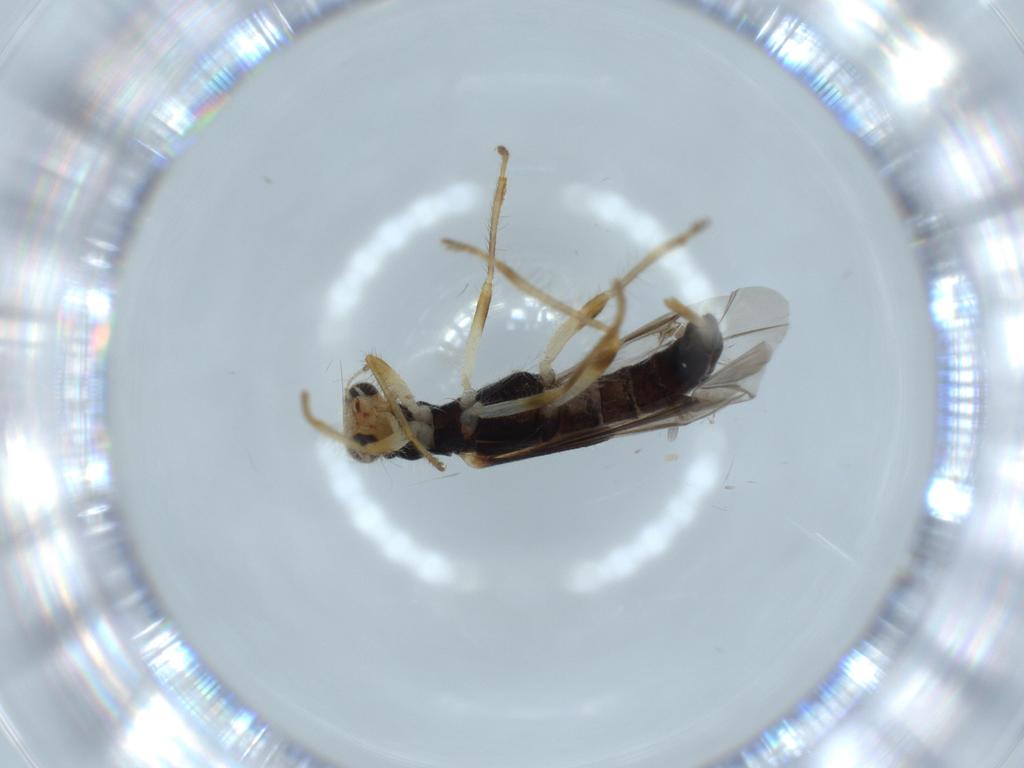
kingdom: Animalia
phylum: Arthropoda
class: Insecta
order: Coleoptera
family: Chrysomelidae
